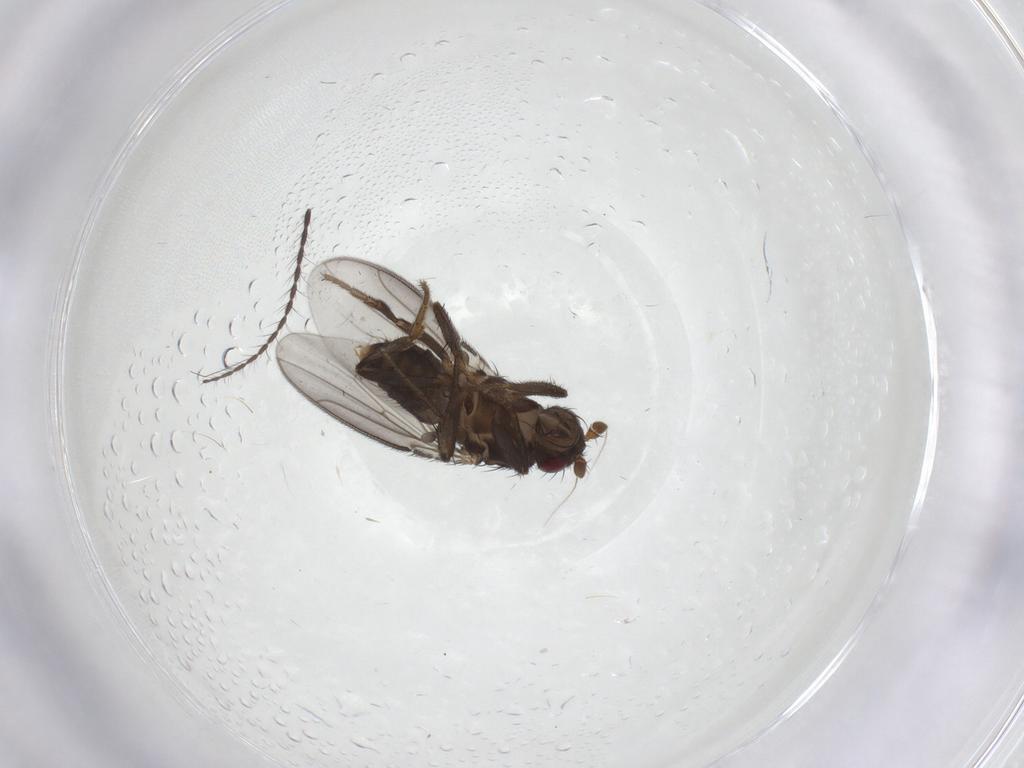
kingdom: Animalia
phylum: Arthropoda
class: Insecta
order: Diptera
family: Sphaeroceridae
